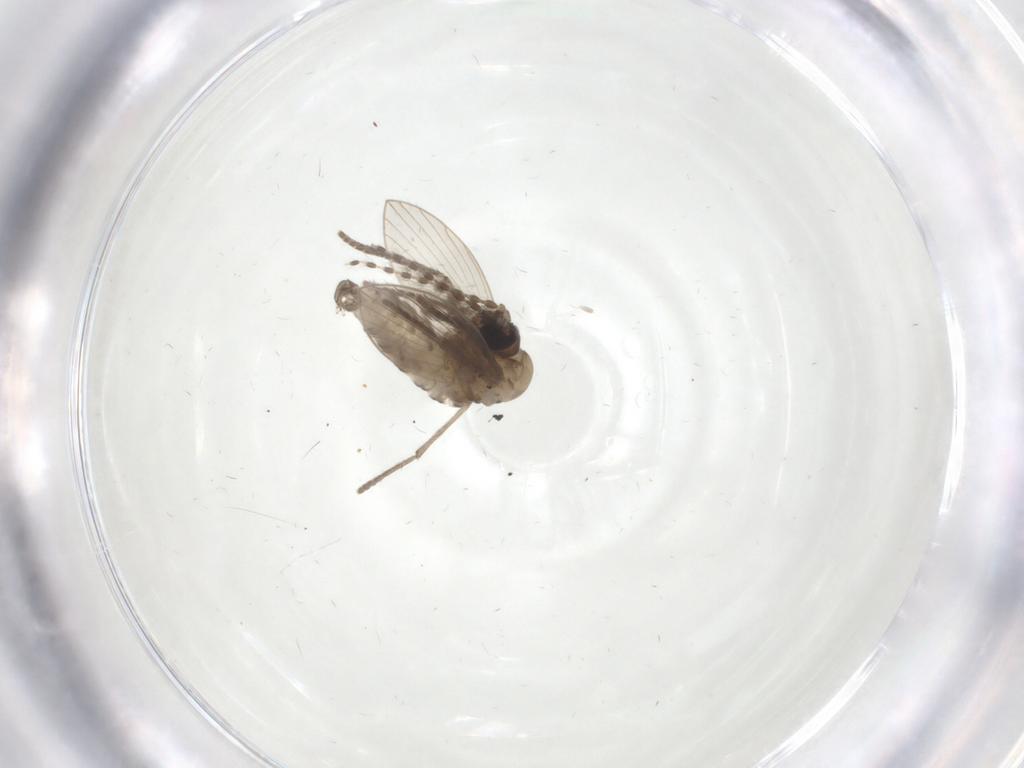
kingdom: Animalia
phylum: Arthropoda
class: Insecta
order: Diptera
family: Psychodidae
